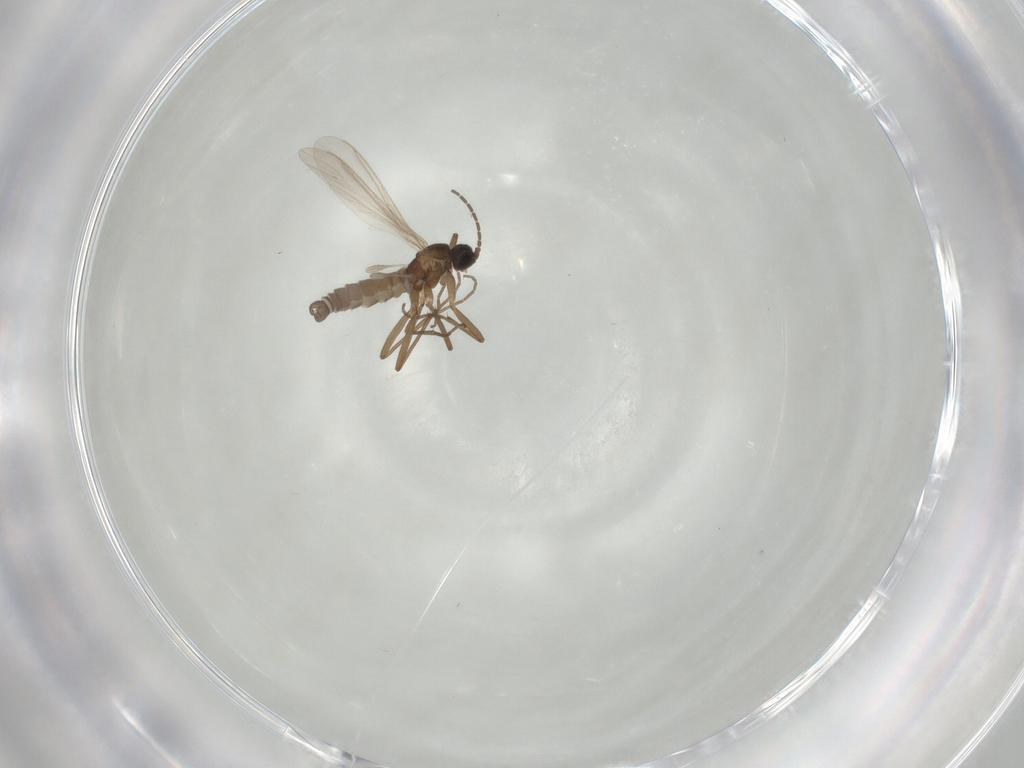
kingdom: Animalia
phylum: Arthropoda
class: Insecta
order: Diptera
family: Sciaridae
